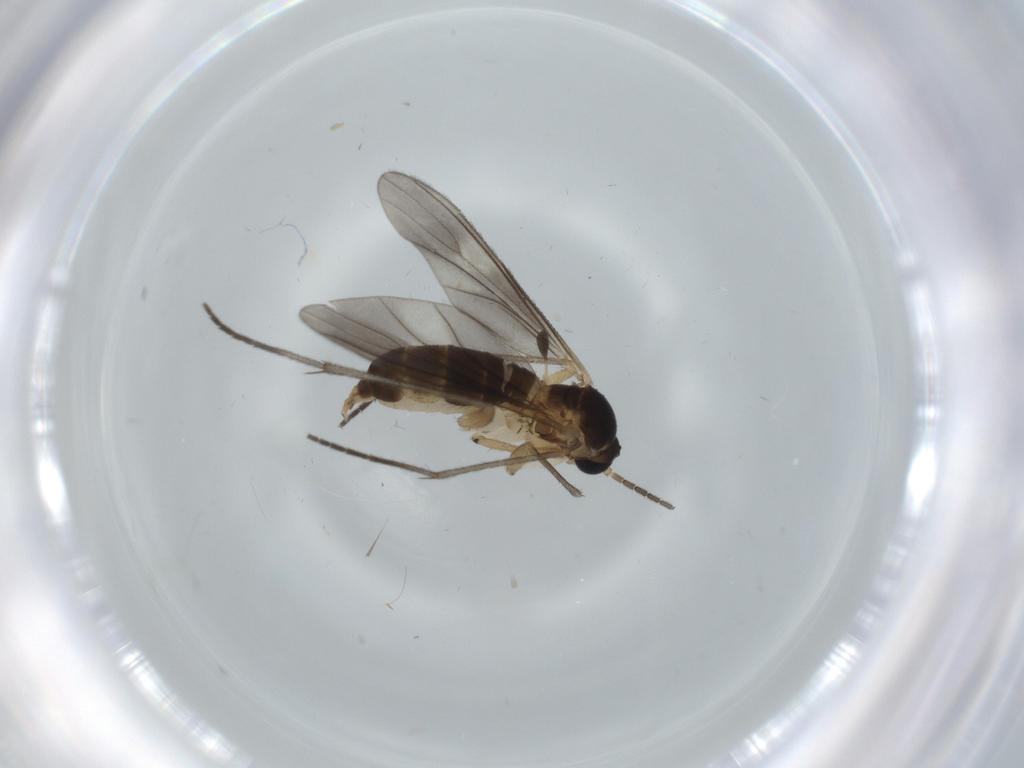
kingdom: Animalia
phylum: Arthropoda
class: Insecta
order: Diptera
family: Sciaridae
